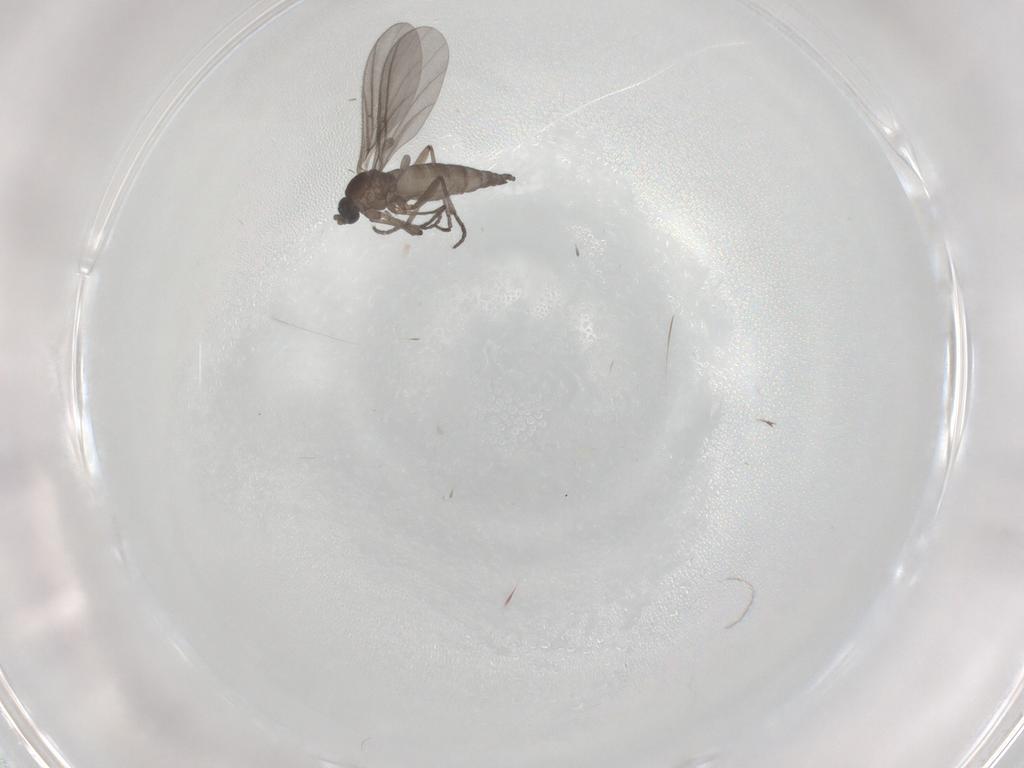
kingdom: Animalia
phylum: Arthropoda
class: Insecta
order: Diptera
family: Sciaridae
